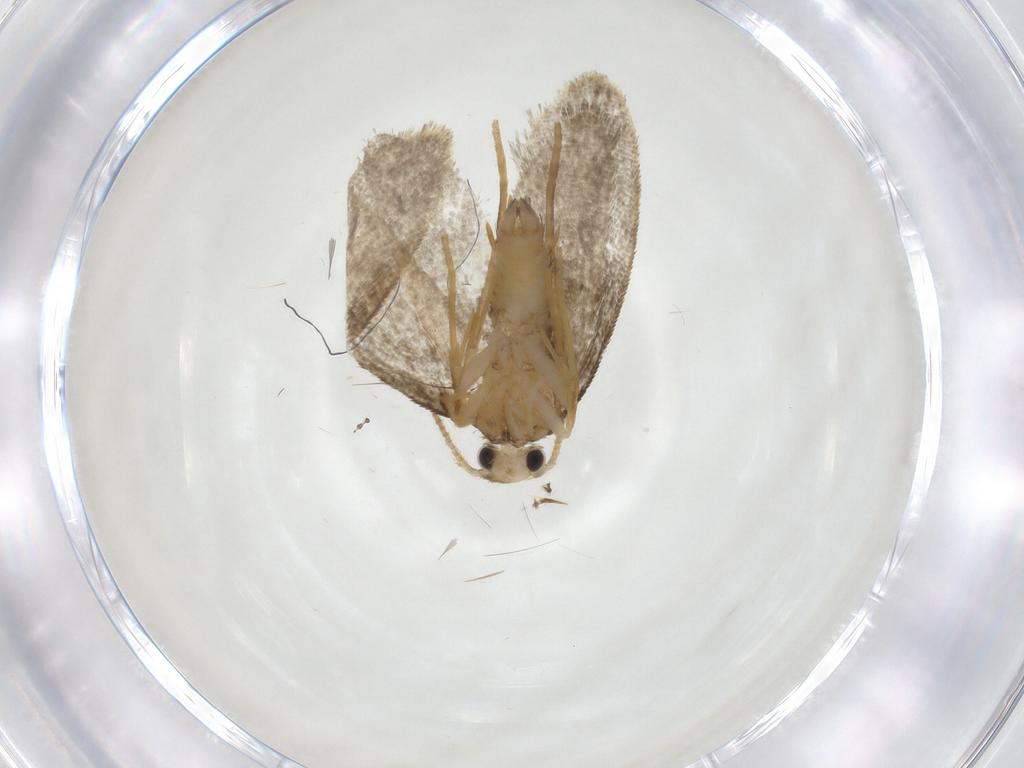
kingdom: Animalia
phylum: Arthropoda
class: Insecta
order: Lepidoptera
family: Psychidae
